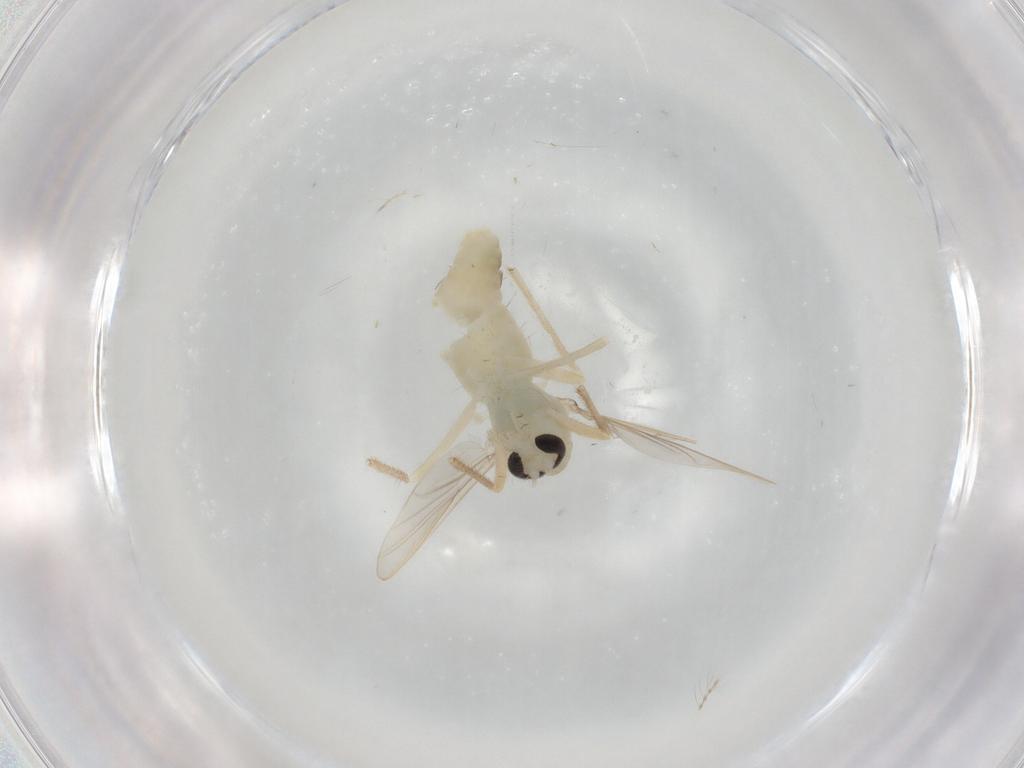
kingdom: Animalia
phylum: Arthropoda
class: Insecta
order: Diptera
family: Chironomidae
